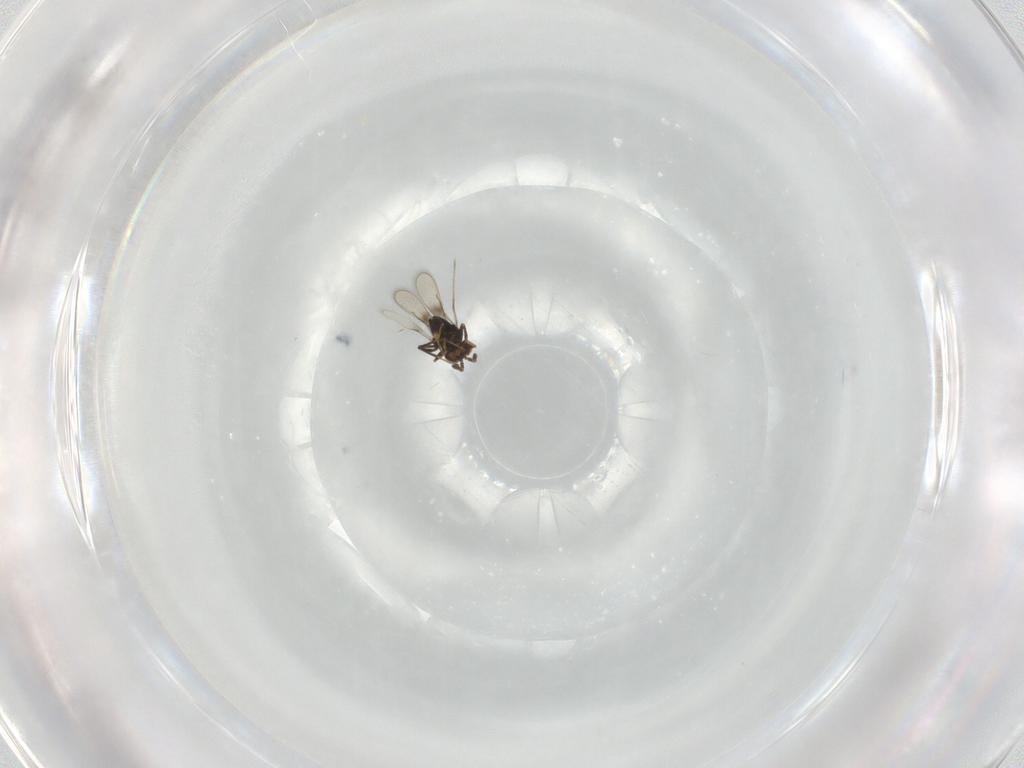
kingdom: Animalia
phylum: Arthropoda
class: Insecta
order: Hymenoptera
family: Azotidae
